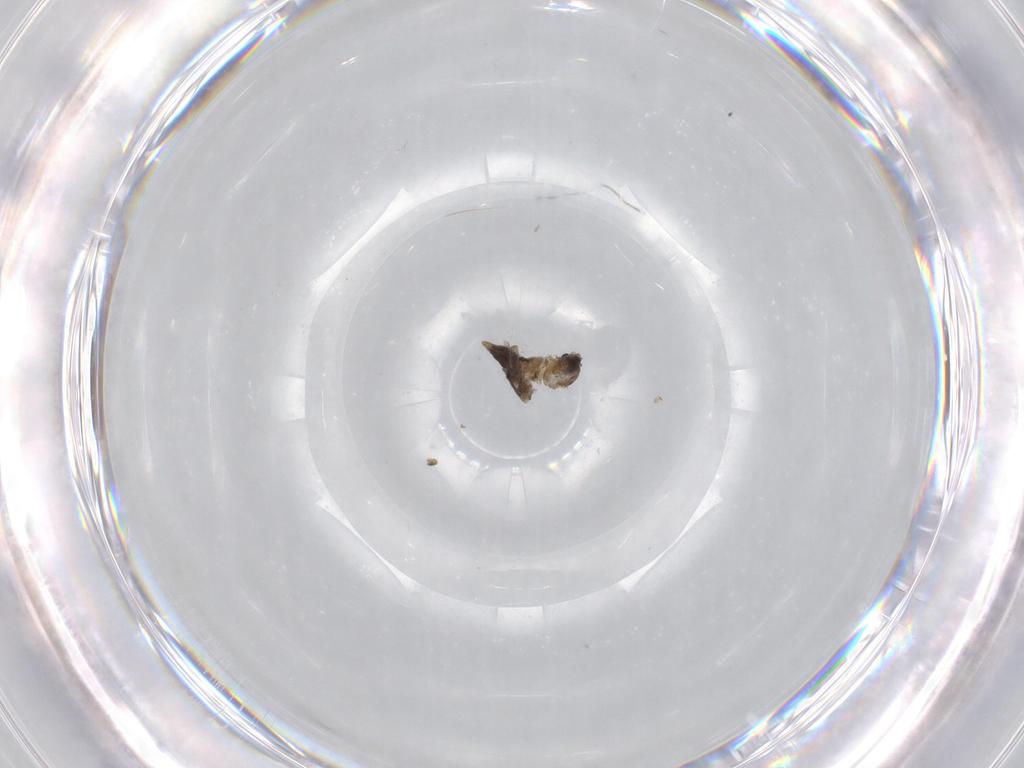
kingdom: Animalia
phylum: Arthropoda
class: Insecta
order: Diptera
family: Cecidomyiidae
